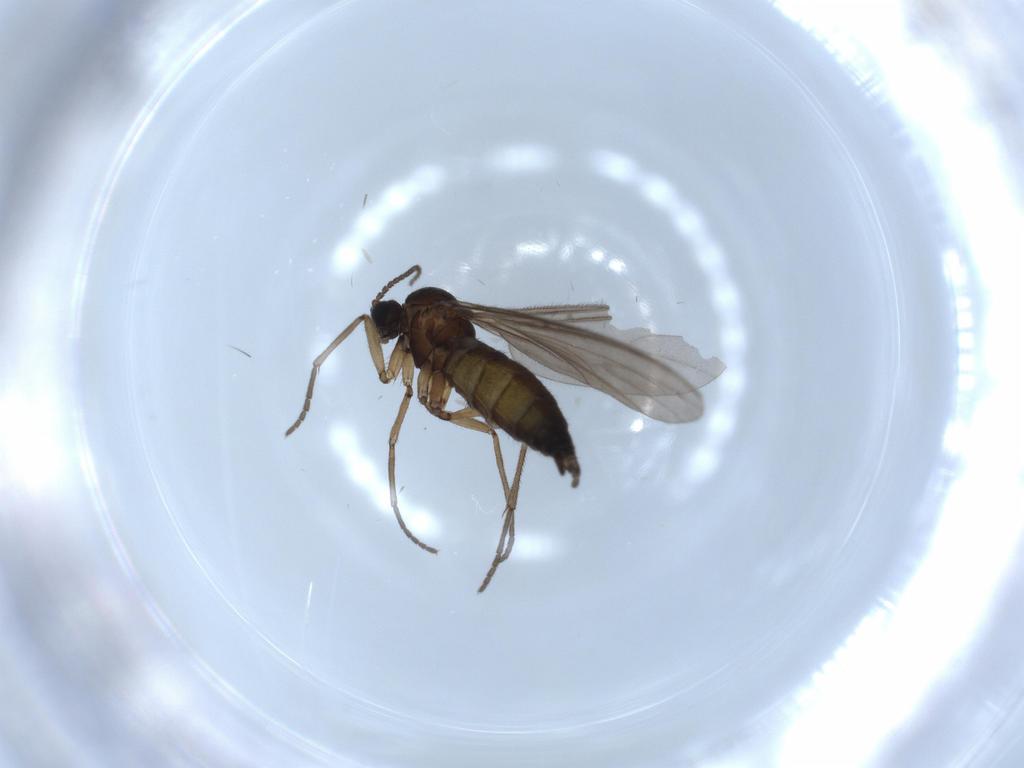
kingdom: Animalia
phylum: Arthropoda
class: Insecta
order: Diptera
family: Sciaridae
